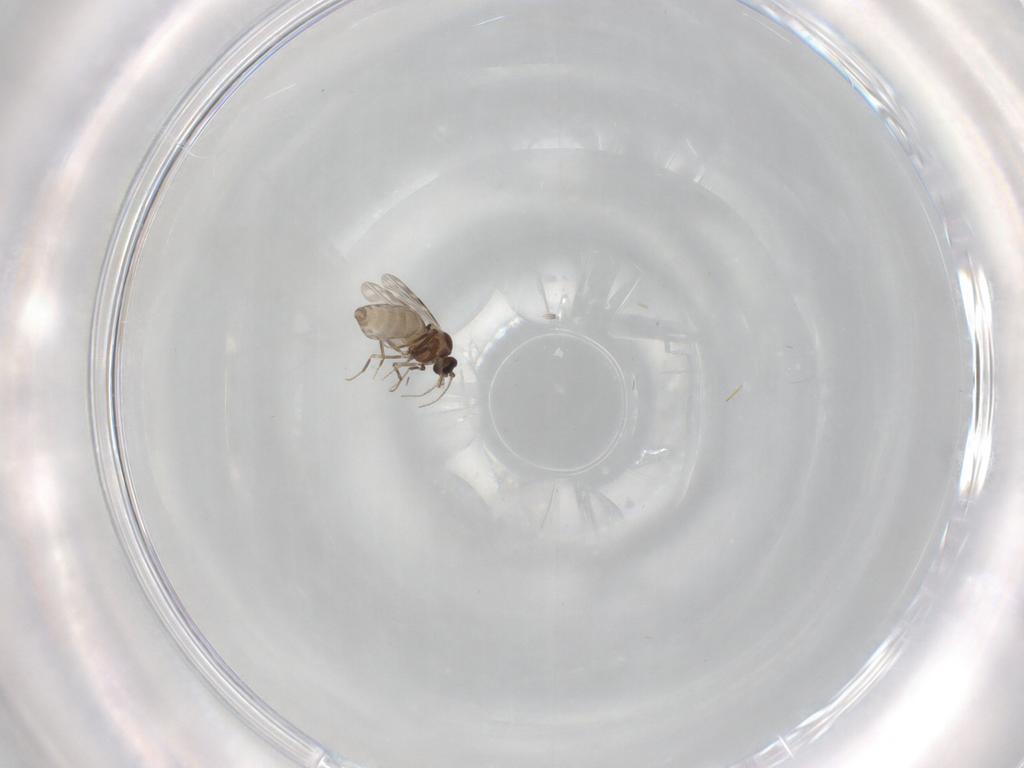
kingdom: Animalia
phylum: Arthropoda
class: Insecta
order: Diptera
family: Ceratopogonidae
